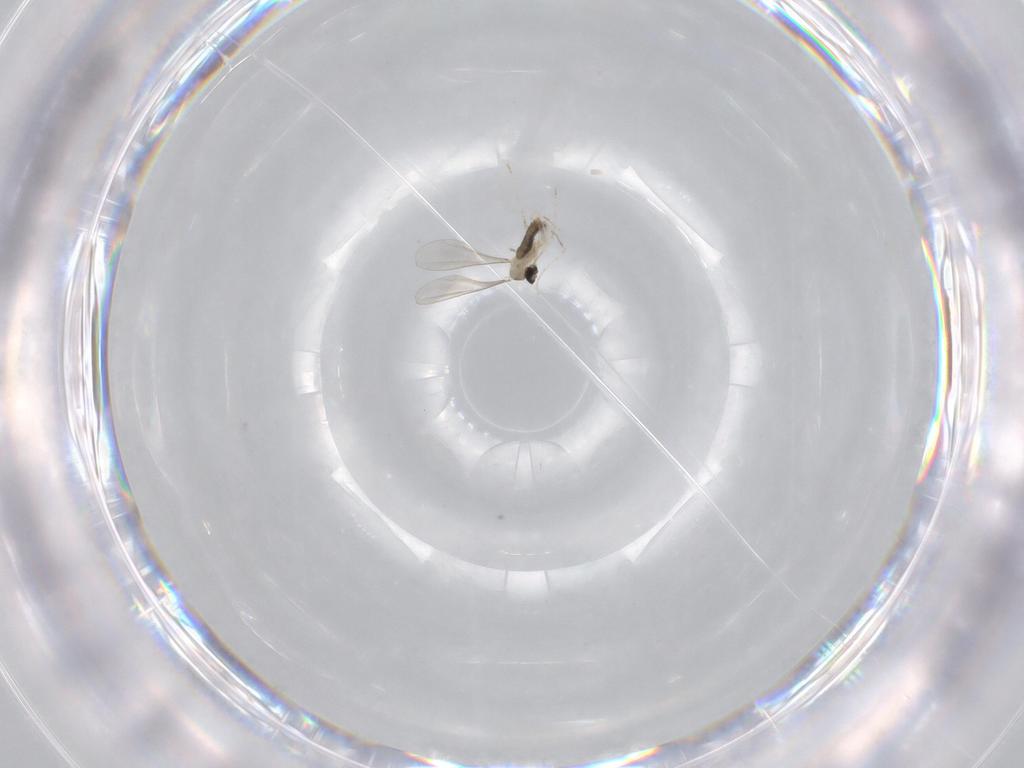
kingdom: Animalia
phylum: Arthropoda
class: Insecta
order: Diptera
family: Cecidomyiidae
